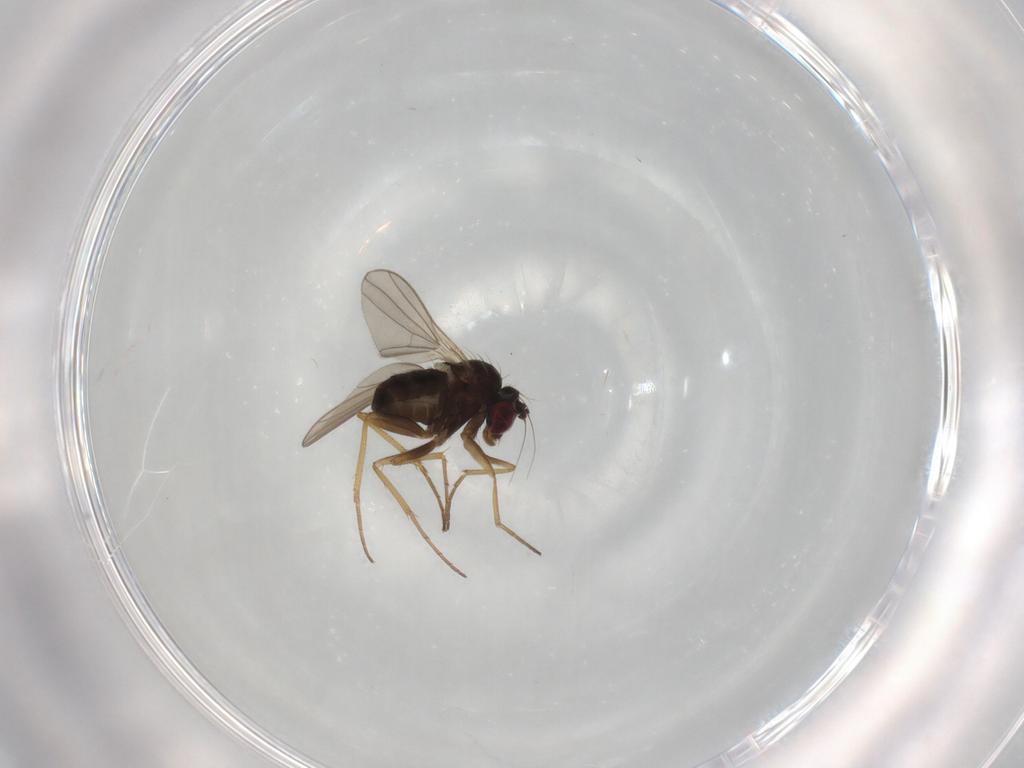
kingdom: Animalia
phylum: Arthropoda
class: Insecta
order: Diptera
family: Dolichopodidae
